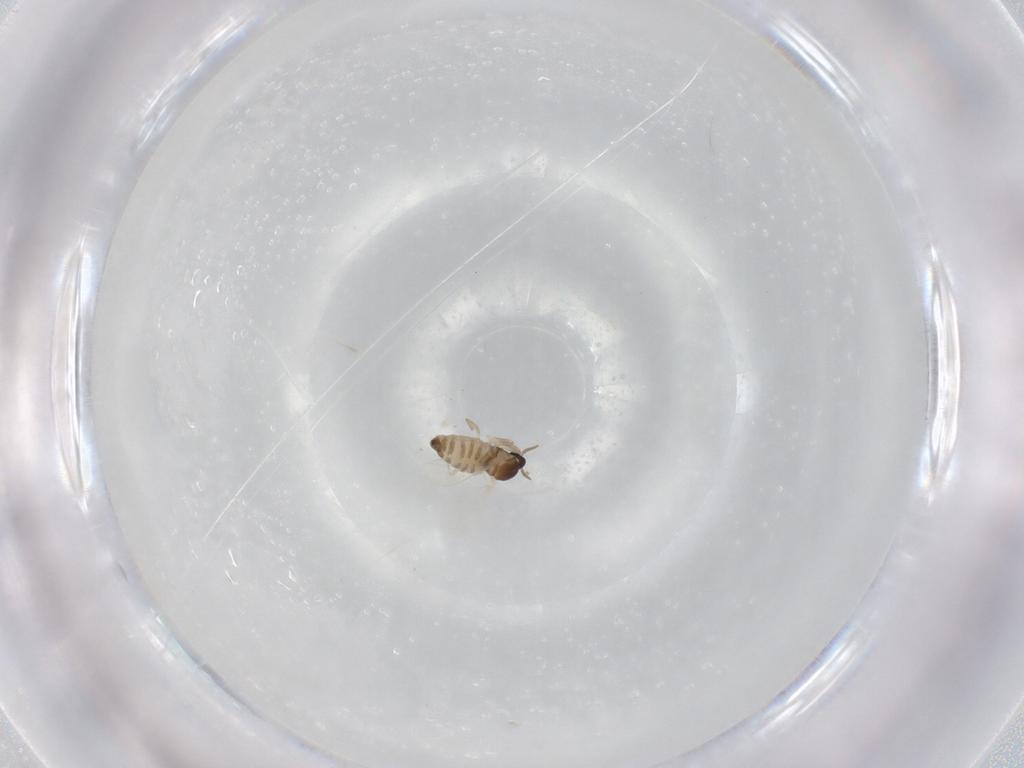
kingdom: Animalia
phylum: Arthropoda
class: Insecta
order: Diptera
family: Cecidomyiidae
